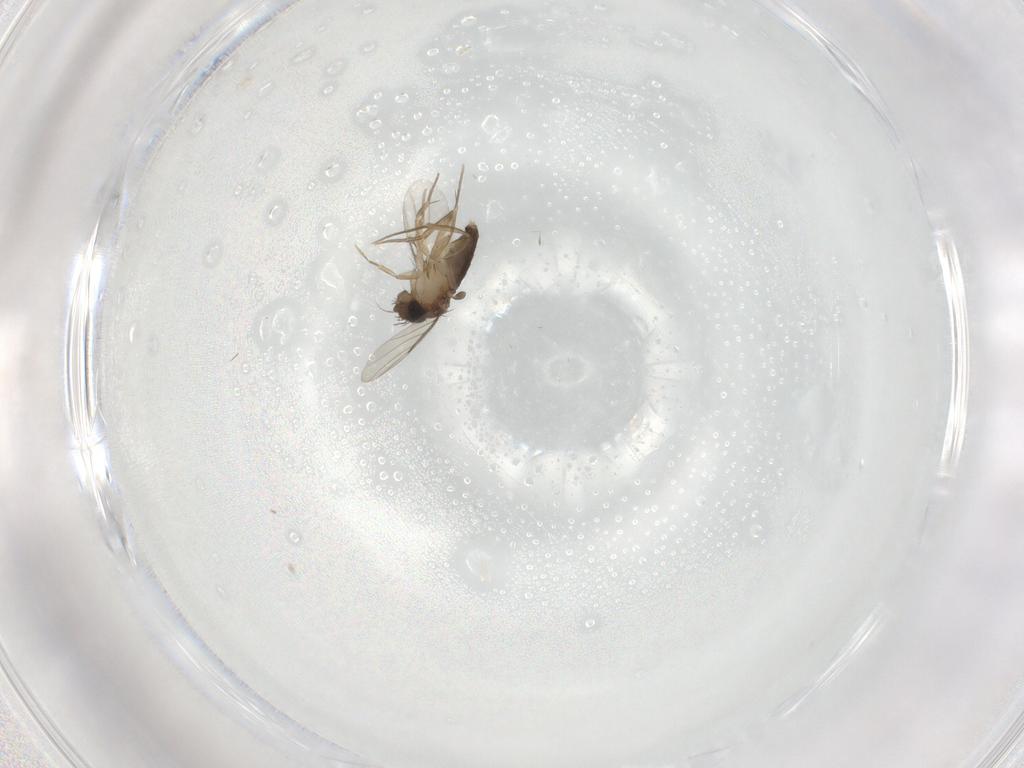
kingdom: Animalia
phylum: Arthropoda
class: Insecta
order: Diptera
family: Phoridae
